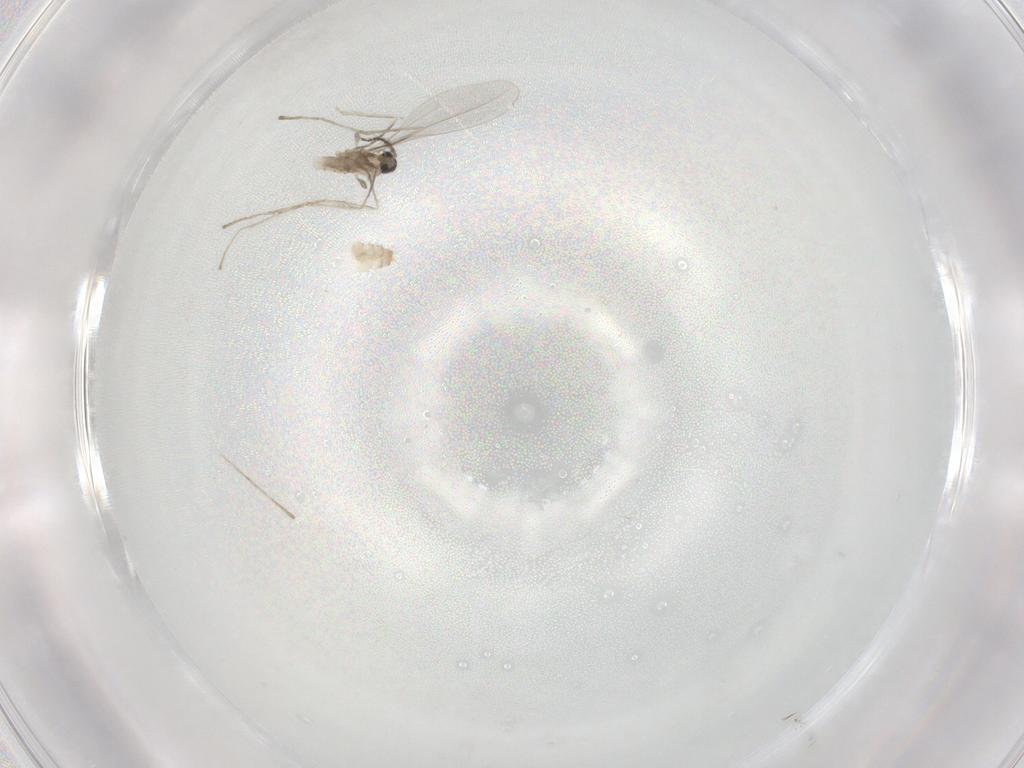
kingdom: Animalia
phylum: Arthropoda
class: Insecta
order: Diptera
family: Cecidomyiidae
